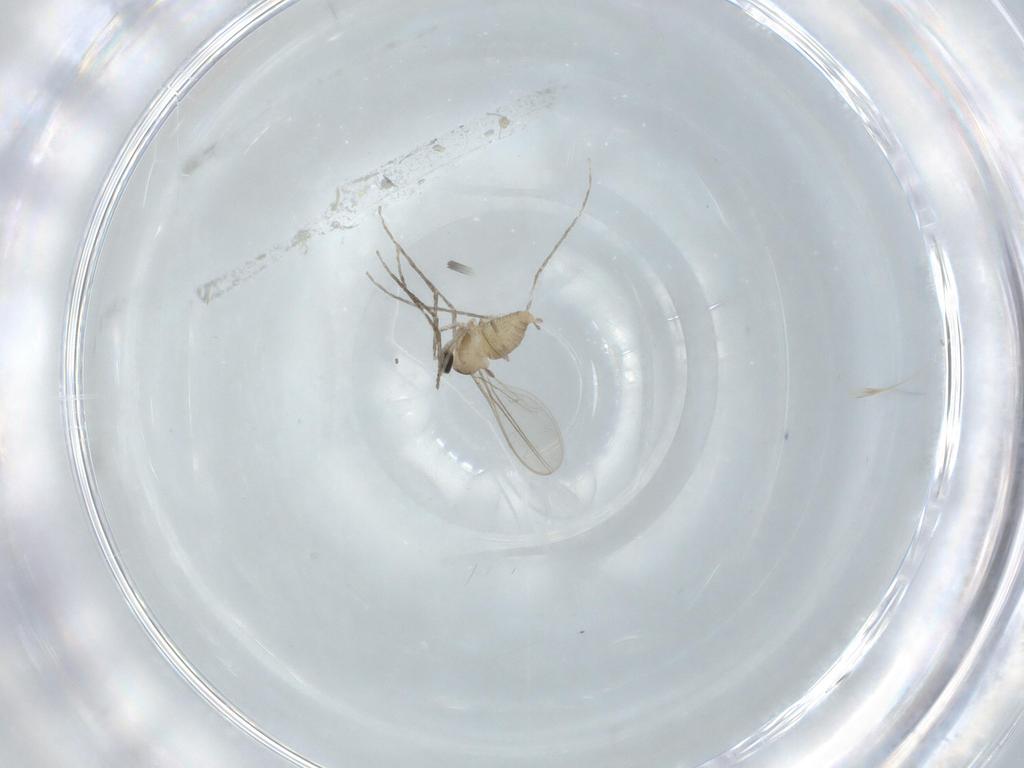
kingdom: Animalia
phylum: Arthropoda
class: Insecta
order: Diptera
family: Cecidomyiidae
